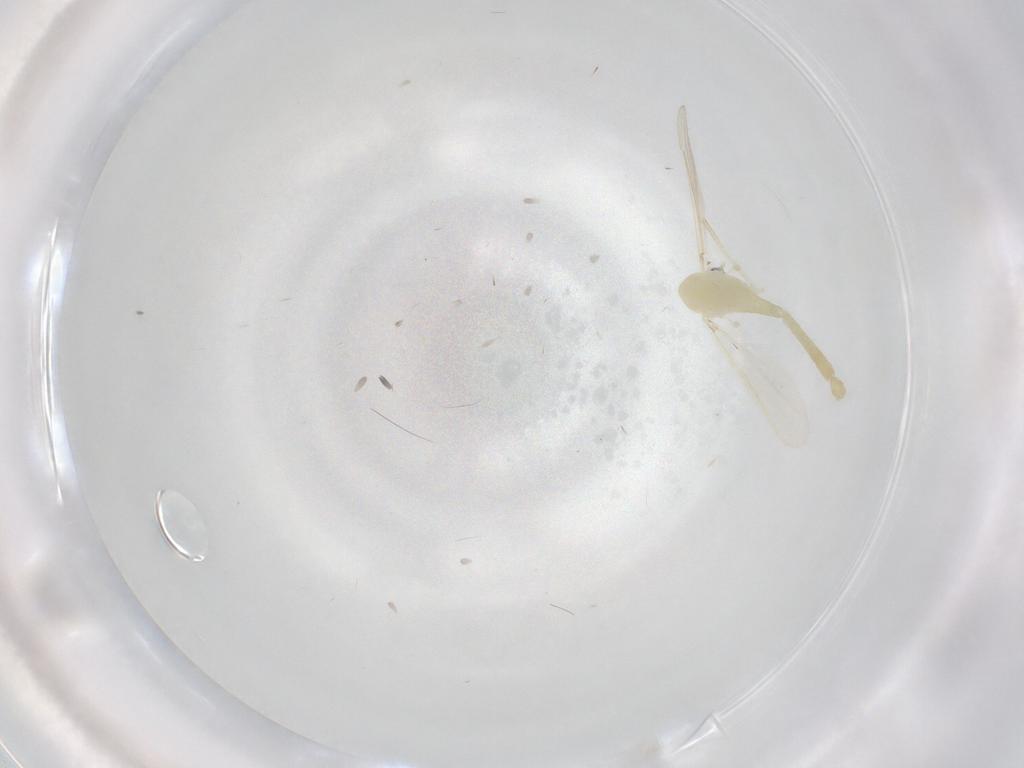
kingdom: Animalia
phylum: Arthropoda
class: Insecta
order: Diptera
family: Chironomidae
